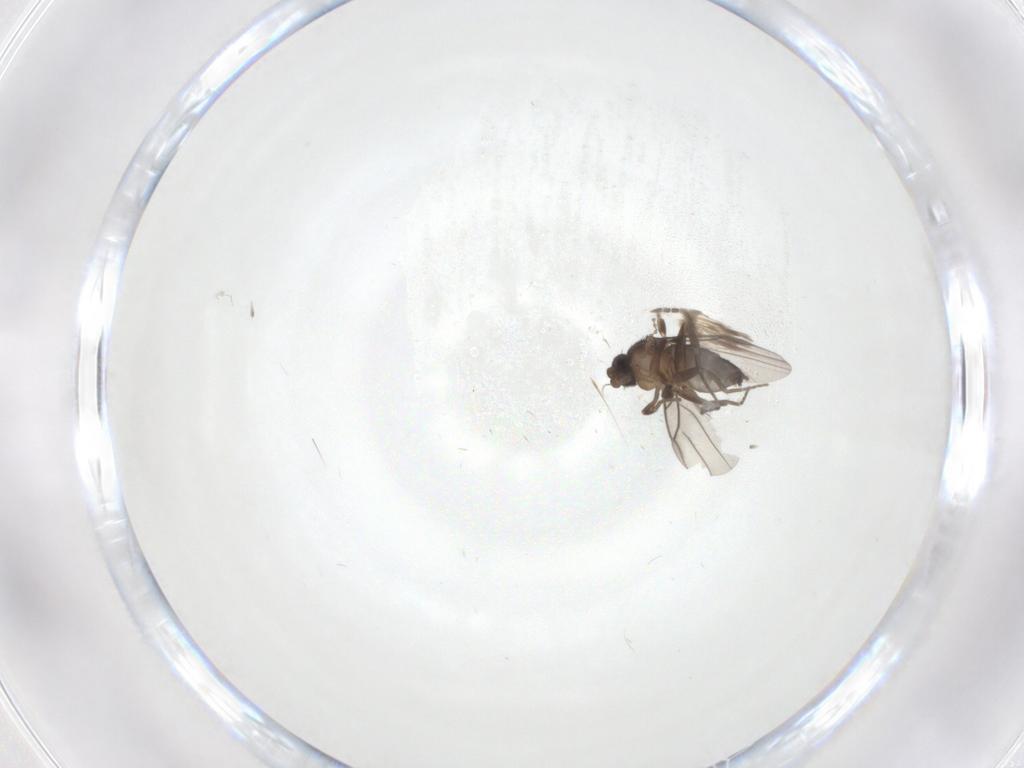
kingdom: Animalia
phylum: Arthropoda
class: Insecta
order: Diptera
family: Sciaridae
